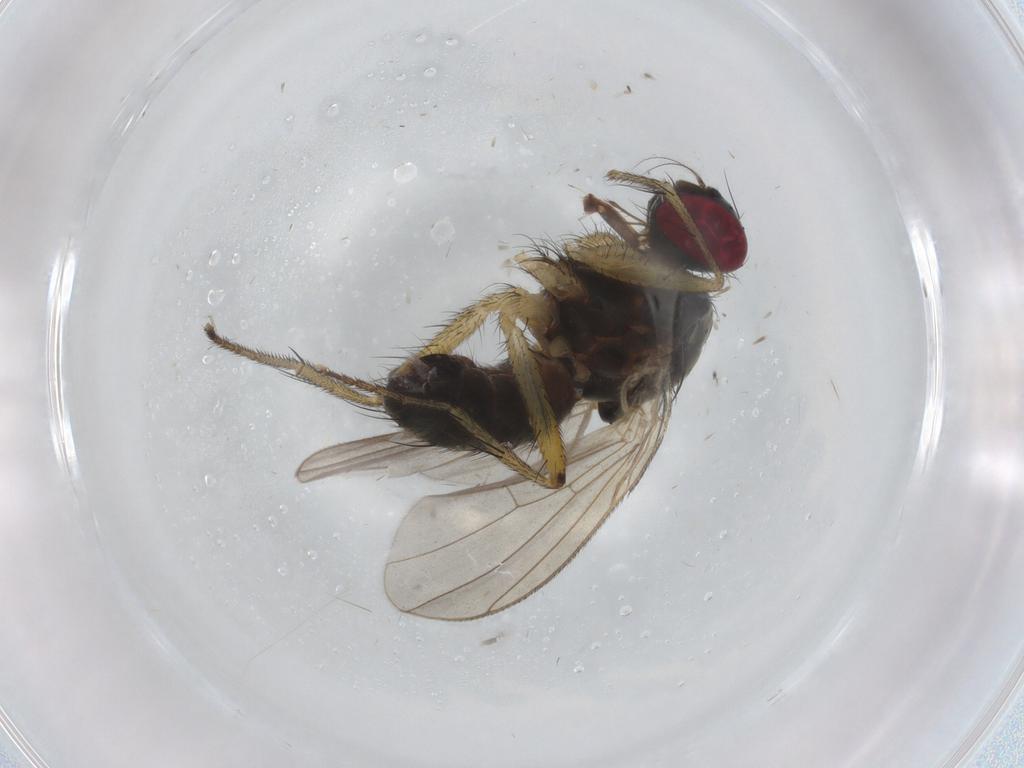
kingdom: Animalia
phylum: Arthropoda
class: Insecta
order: Diptera
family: Muscidae
